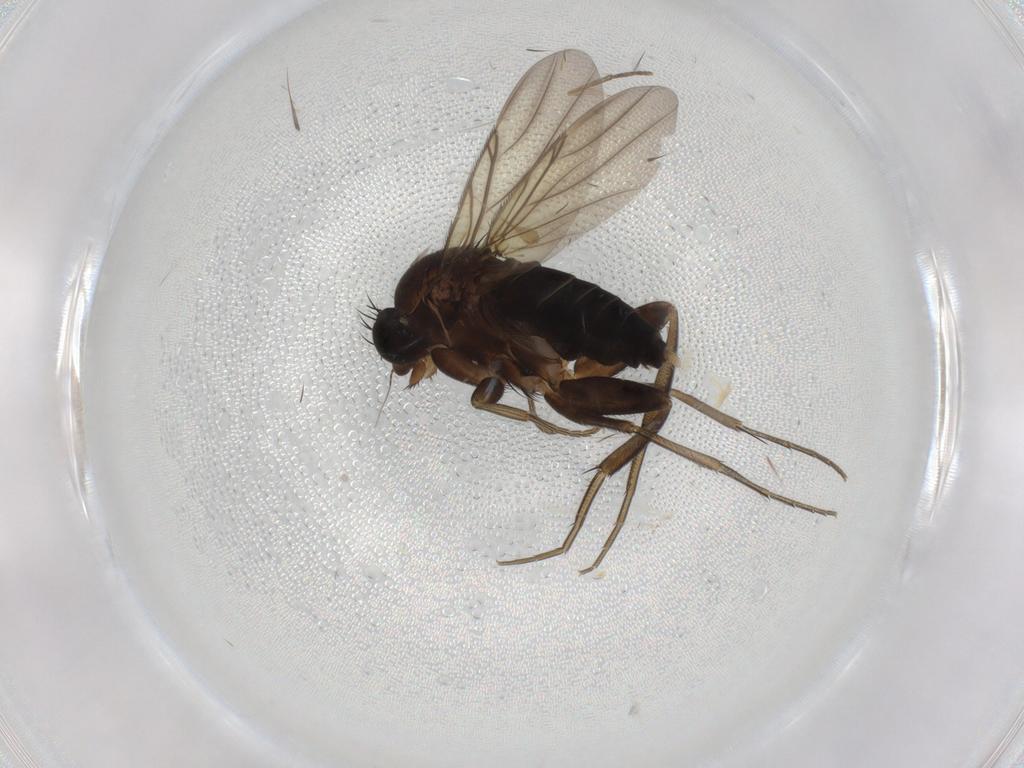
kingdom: Animalia
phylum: Arthropoda
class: Insecta
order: Diptera
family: Phoridae
